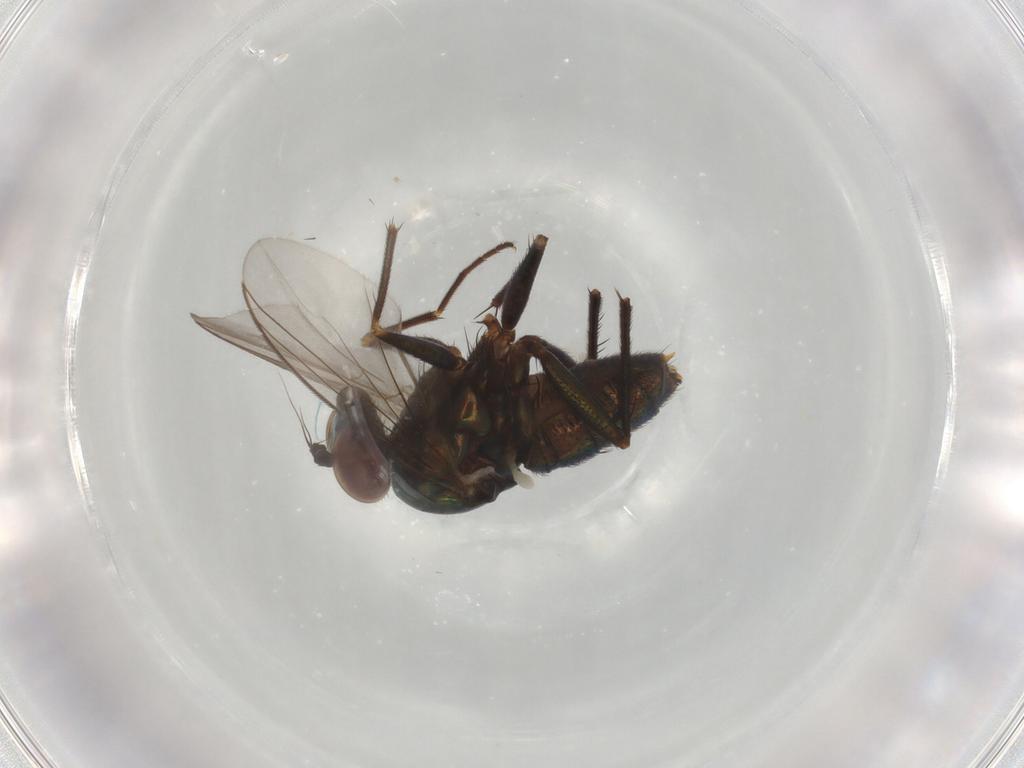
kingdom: Animalia
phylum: Arthropoda
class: Insecta
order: Diptera
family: Dolichopodidae
